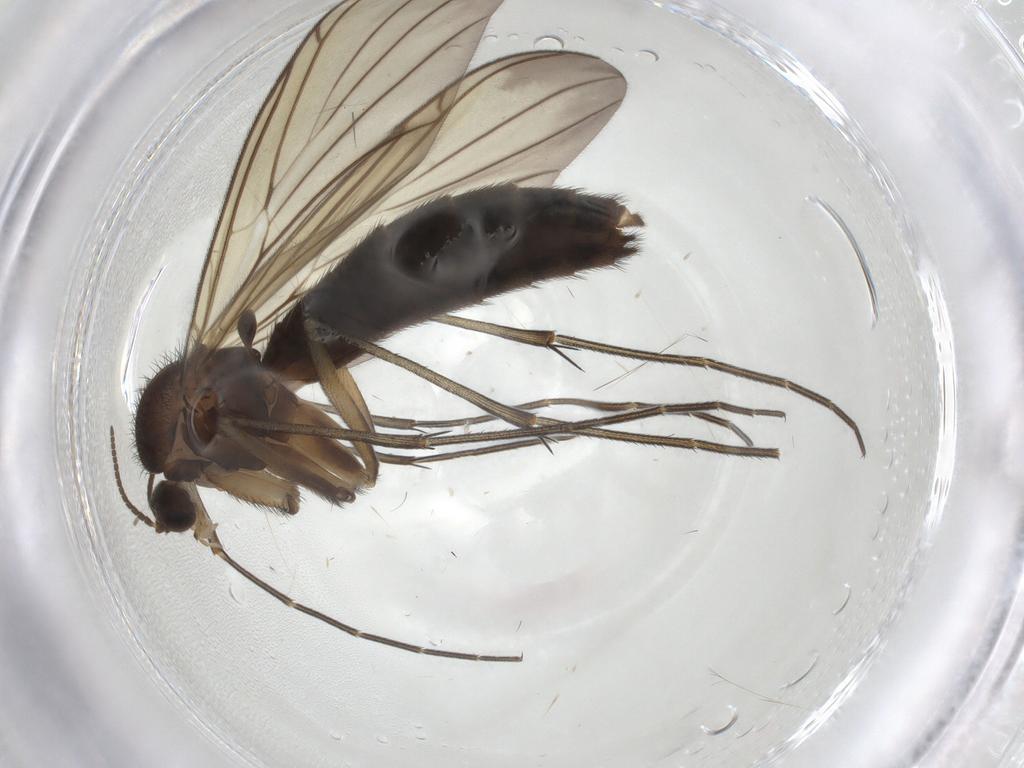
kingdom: Animalia
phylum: Arthropoda
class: Insecta
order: Diptera
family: Keroplatidae
